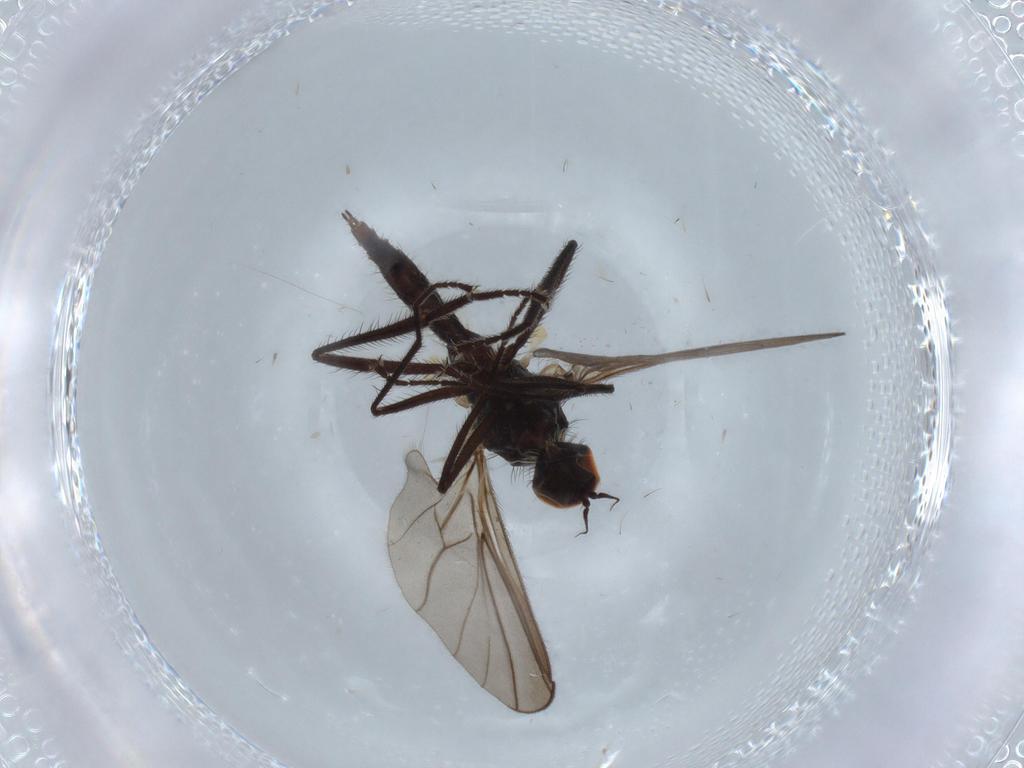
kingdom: Animalia
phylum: Arthropoda
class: Insecta
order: Diptera
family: Hybotidae
